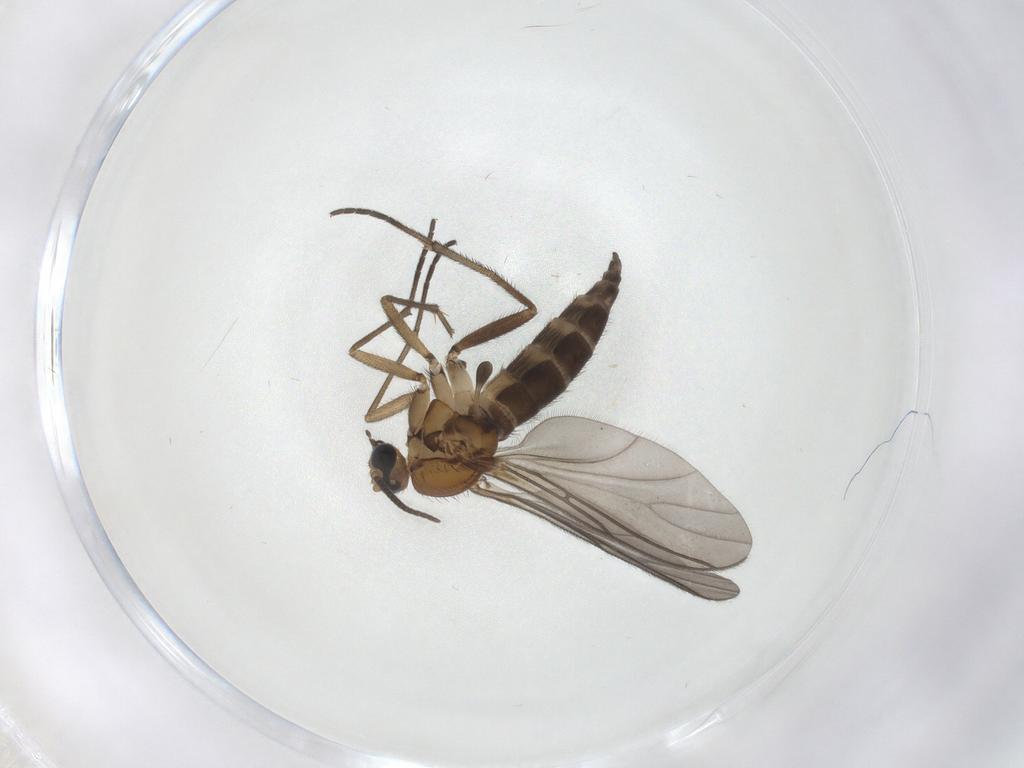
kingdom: Animalia
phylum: Arthropoda
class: Insecta
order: Diptera
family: Sciaridae
